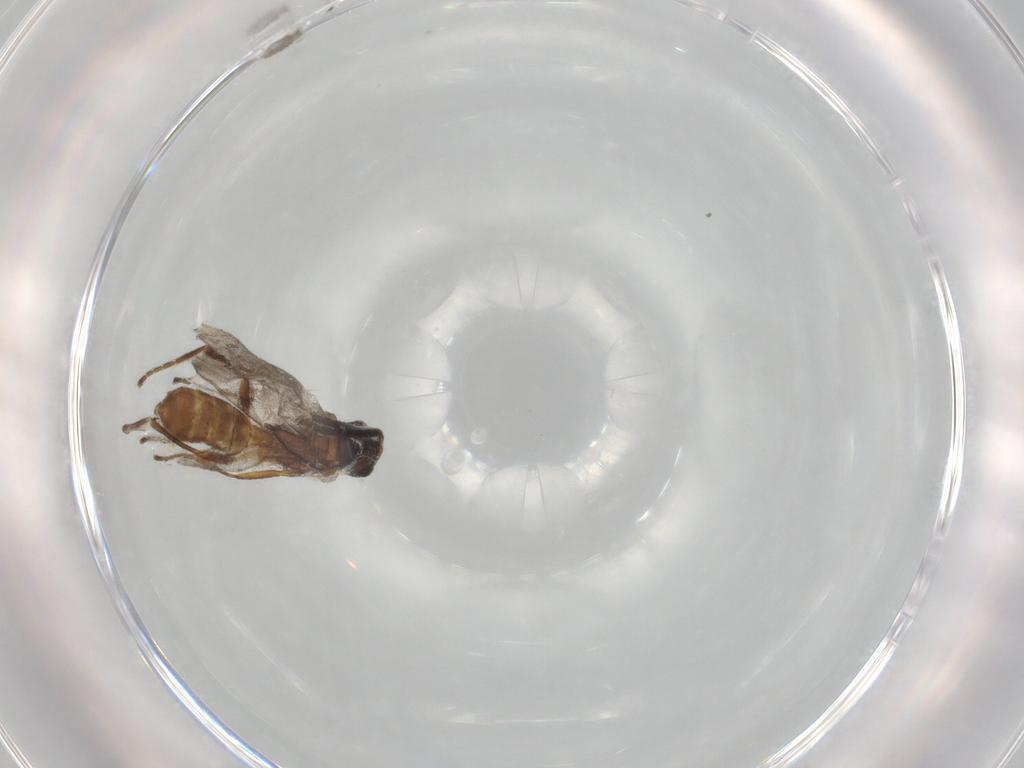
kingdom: Animalia
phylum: Arthropoda
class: Insecta
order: Hymenoptera
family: Braconidae
